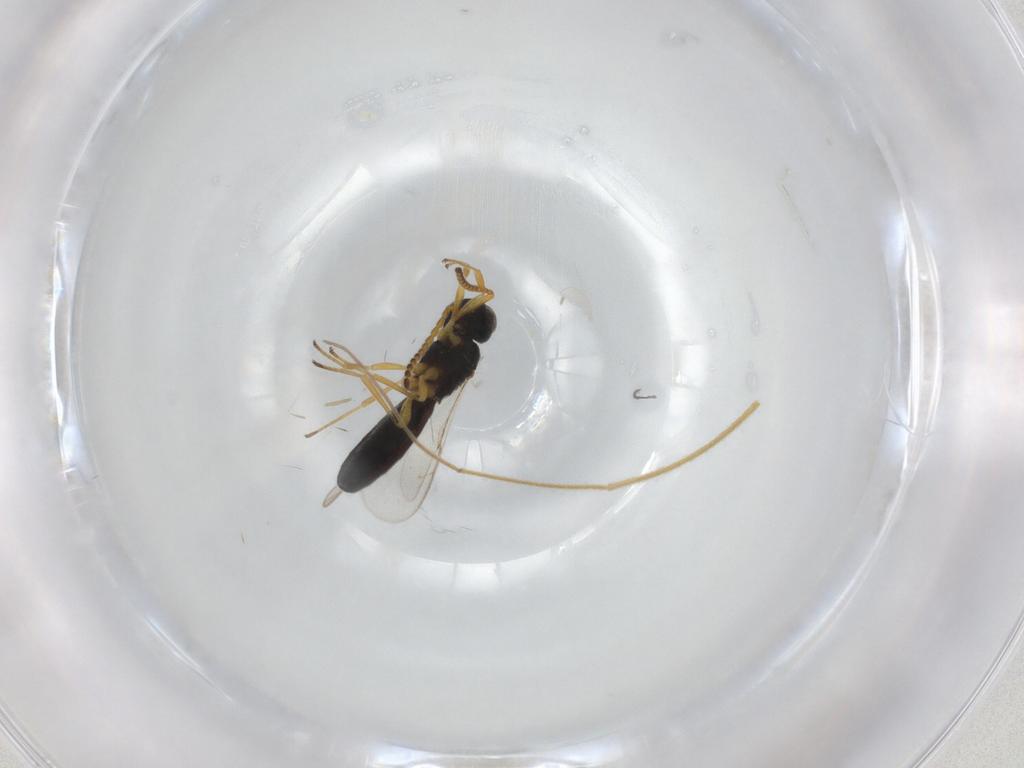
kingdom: Animalia
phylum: Arthropoda
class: Insecta
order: Hymenoptera
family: Scelionidae
